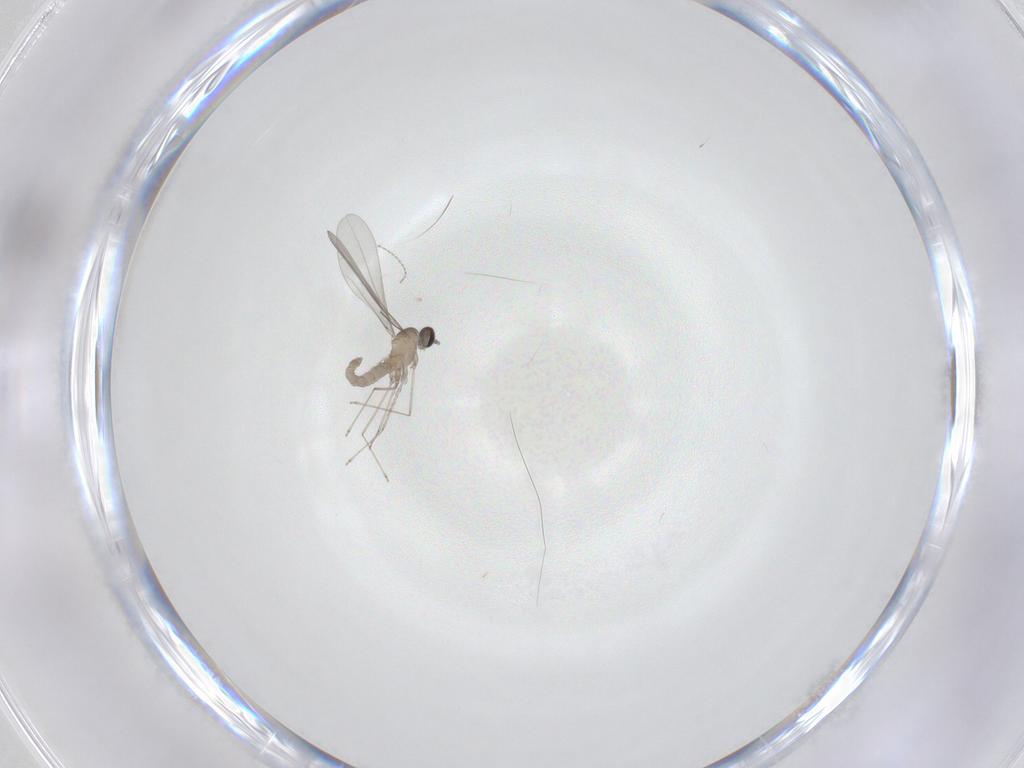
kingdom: Animalia
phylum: Arthropoda
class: Insecta
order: Diptera
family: Cecidomyiidae
